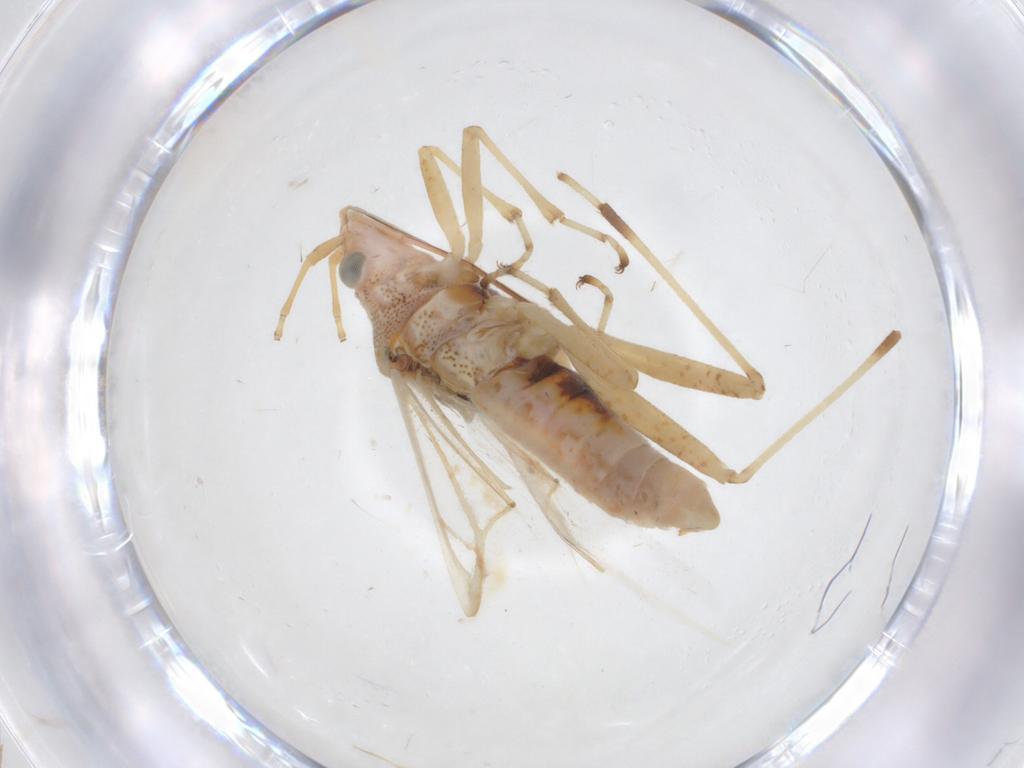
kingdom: Animalia
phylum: Arthropoda
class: Insecta
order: Hemiptera
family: Lygaeidae
